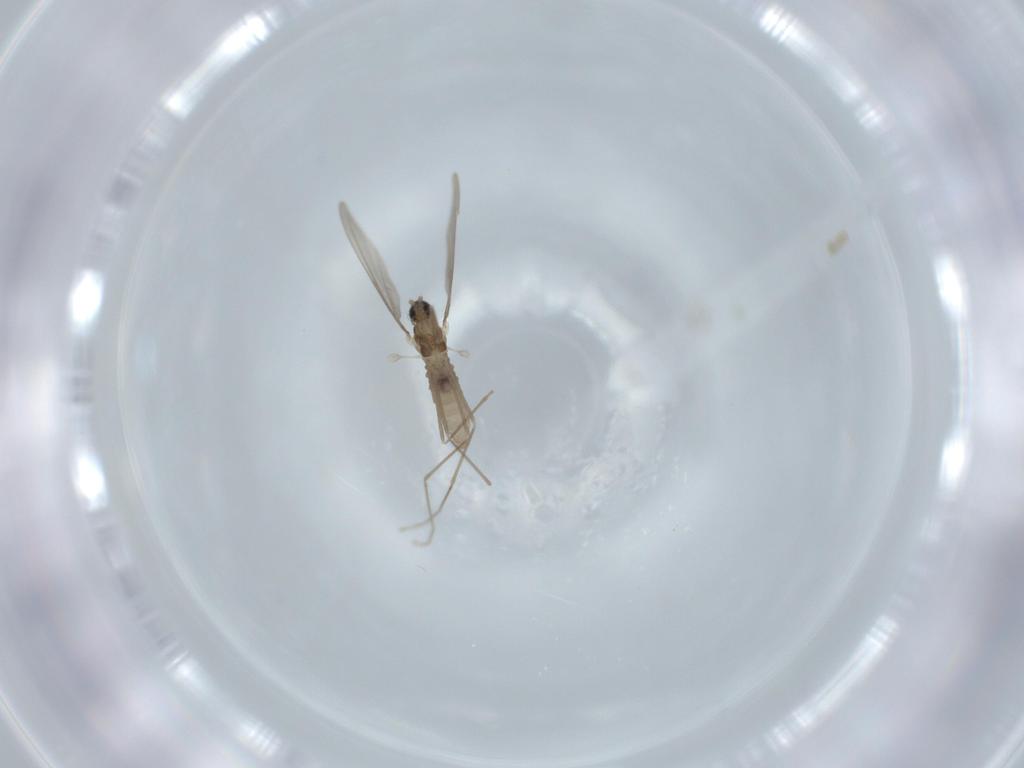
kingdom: Animalia
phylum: Arthropoda
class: Insecta
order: Diptera
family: Cecidomyiidae
